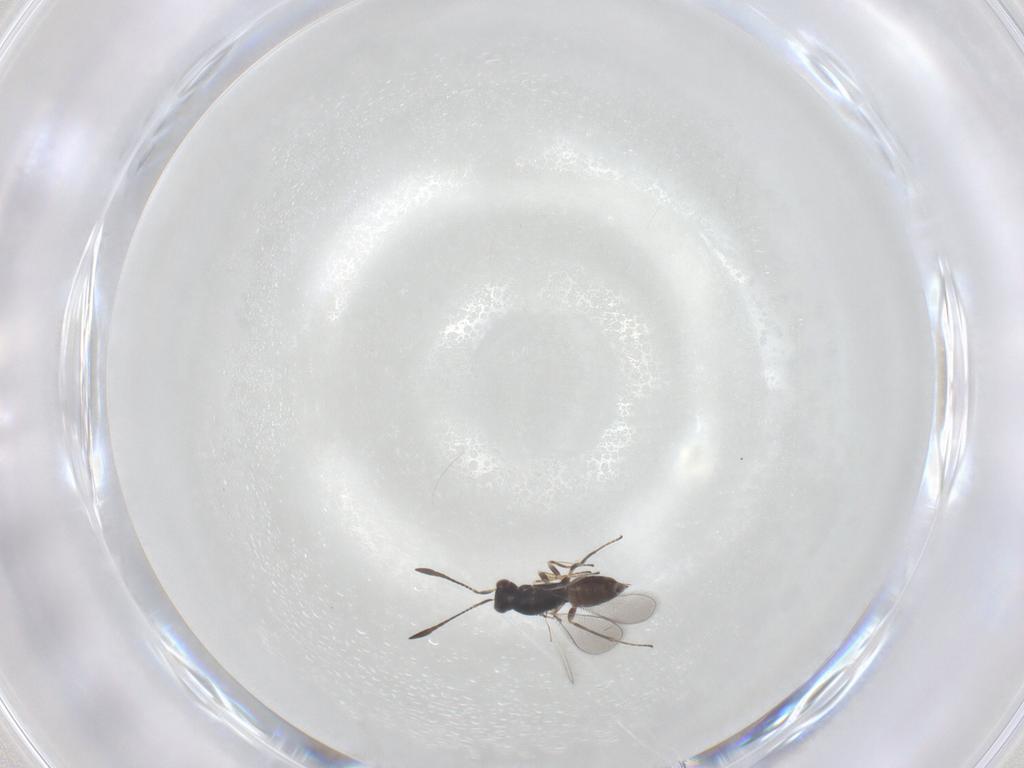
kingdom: Animalia
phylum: Arthropoda
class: Insecta
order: Hymenoptera
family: Mymaridae
